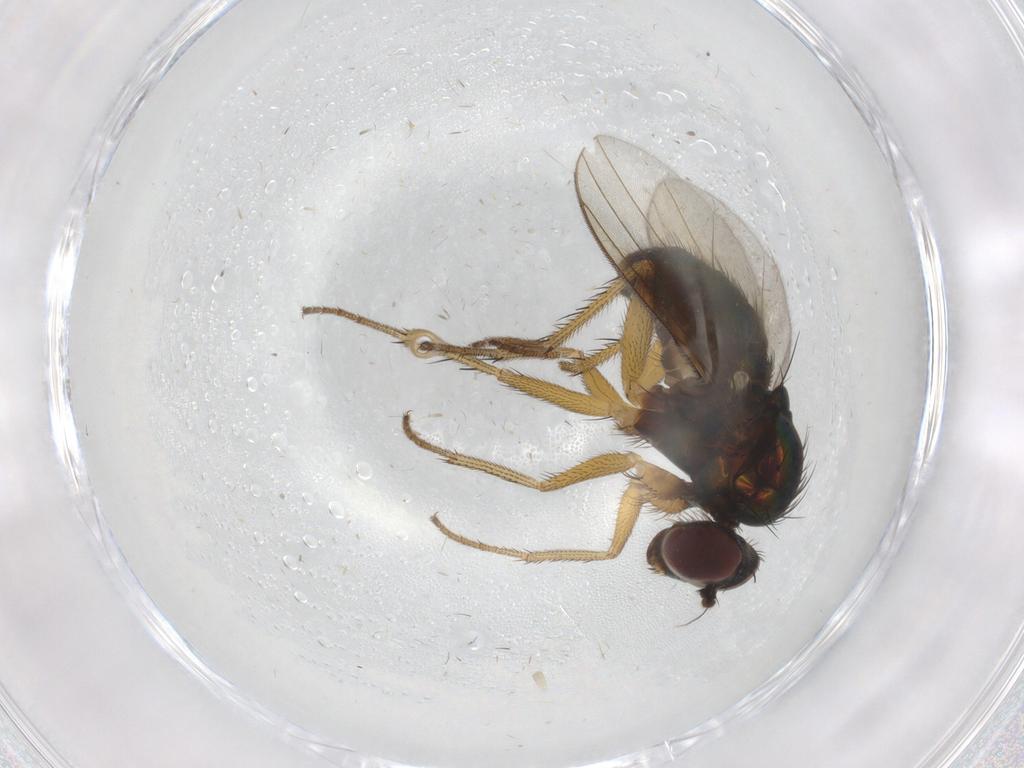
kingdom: Animalia
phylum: Arthropoda
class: Insecta
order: Diptera
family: Dolichopodidae
